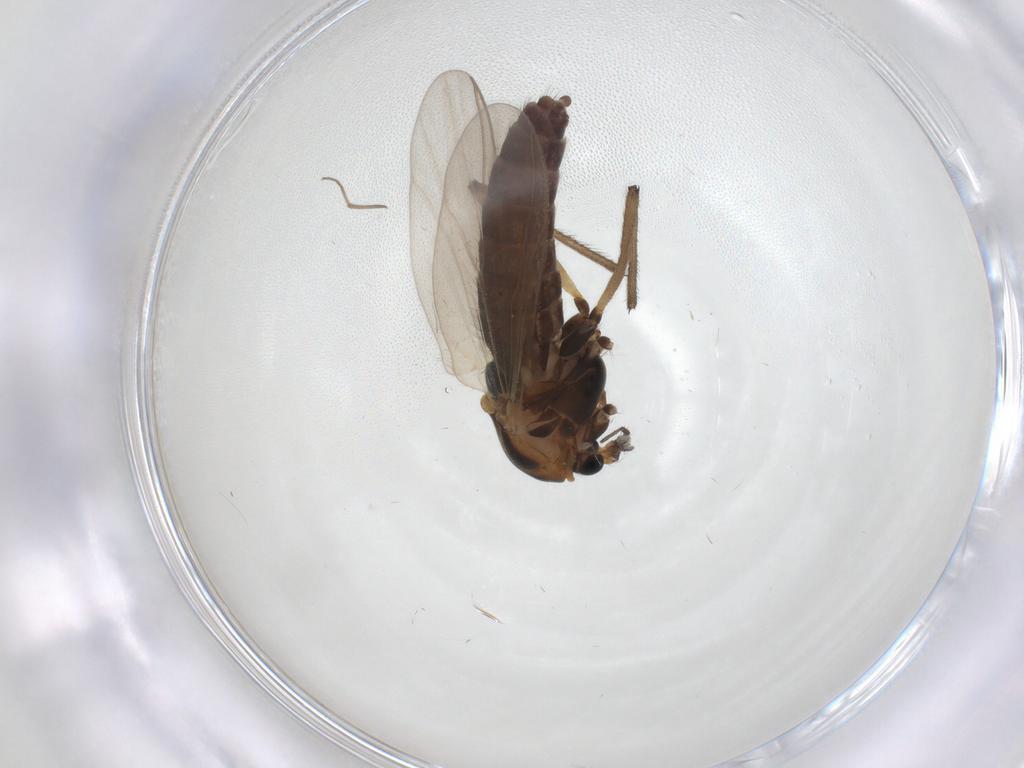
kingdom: Animalia
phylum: Arthropoda
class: Insecta
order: Diptera
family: Chironomidae
